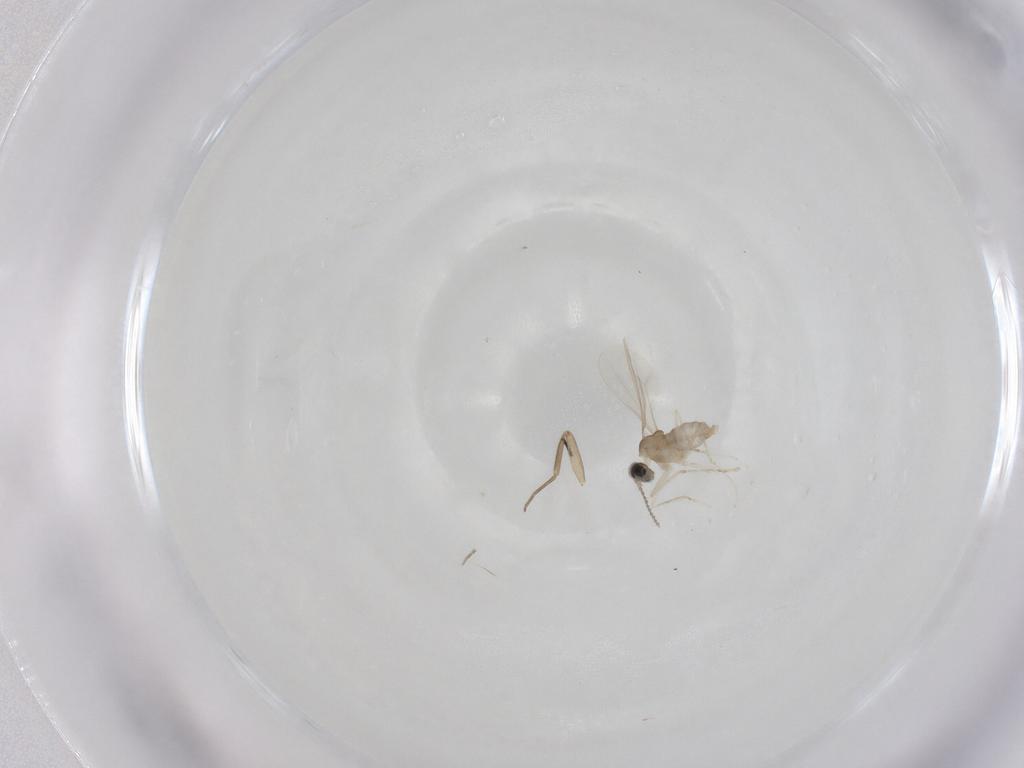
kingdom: Animalia
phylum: Arthropoda
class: Insecta
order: Diptera
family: Cecidomyiidae
